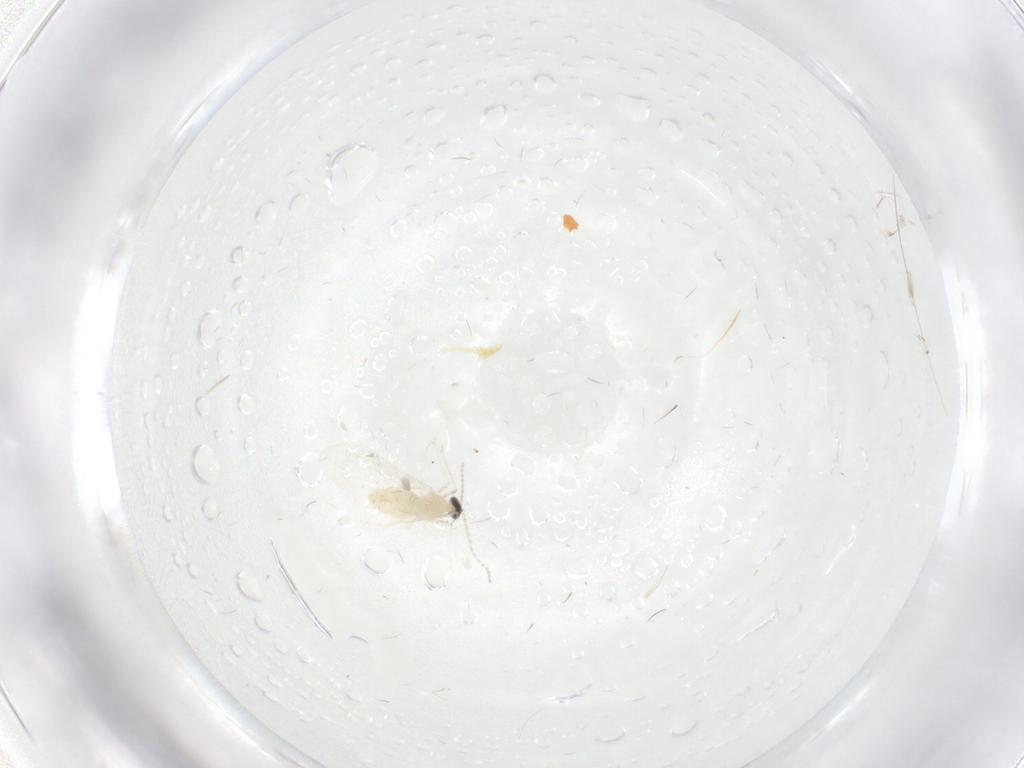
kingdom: Animalia
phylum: Arthropoda
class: Insecta
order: Diptera
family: Cecidomyiidae
